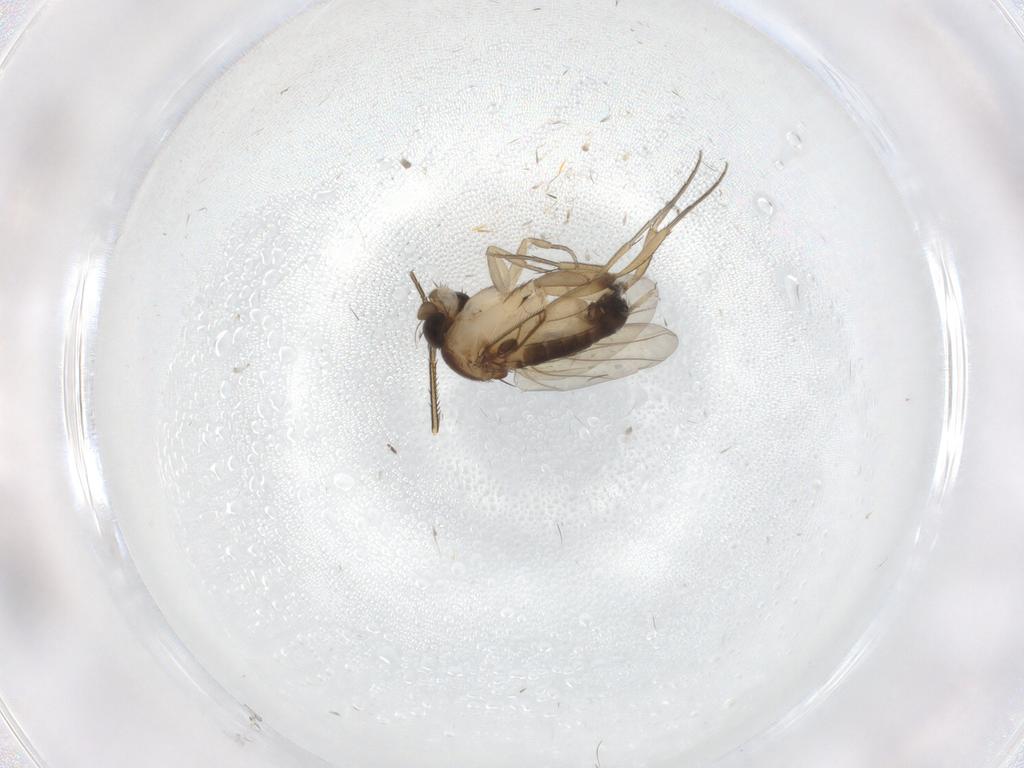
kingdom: Animalia
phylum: Arthropoda
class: Insecta
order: Diptera
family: Phoridae
